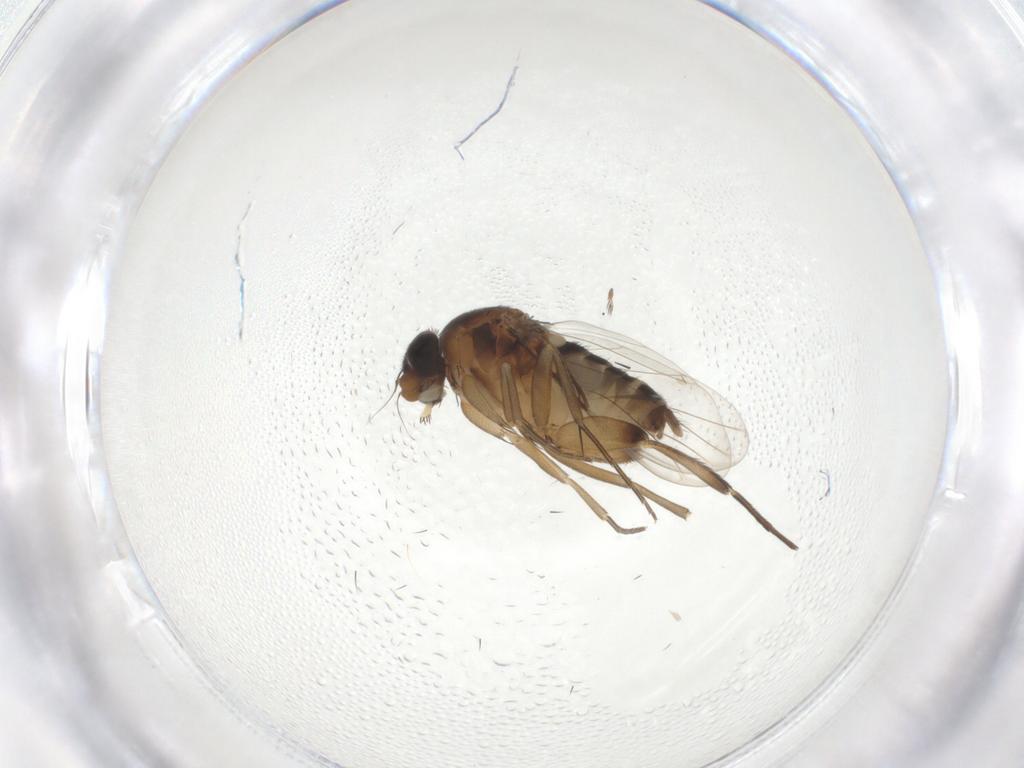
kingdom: Animalia
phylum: Arthropoda
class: Insecta
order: Diptera
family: Phoridae
